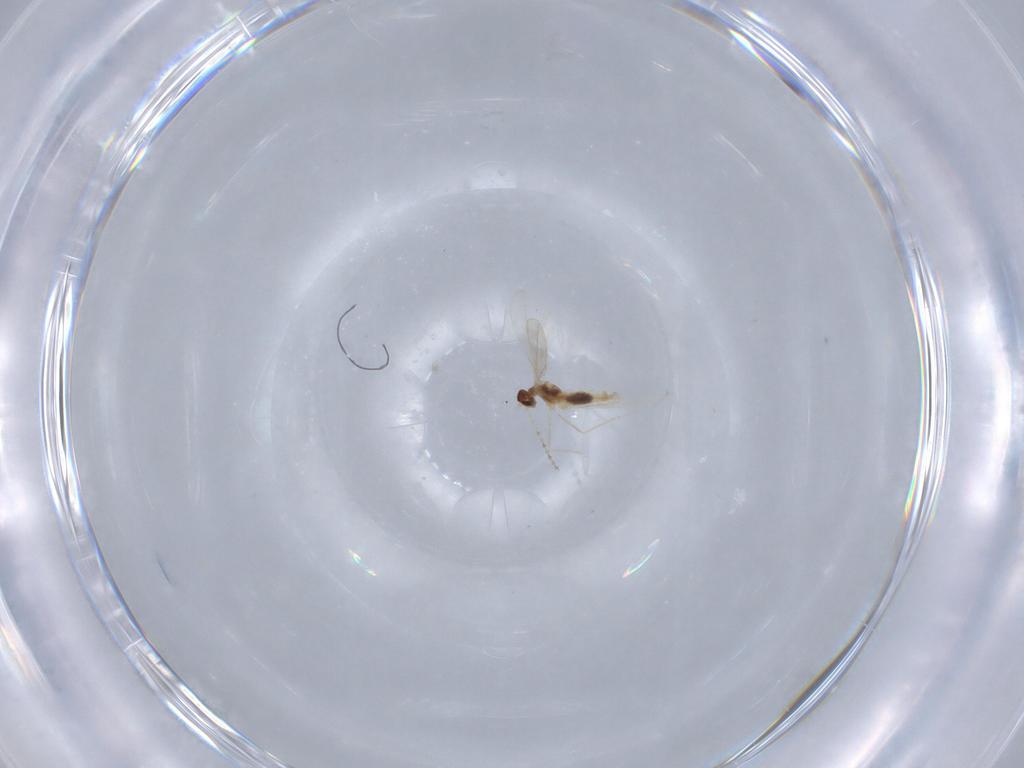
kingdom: Animalia
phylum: Arthropoda
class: Insecta
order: Diptera
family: Cecidomyiidae
